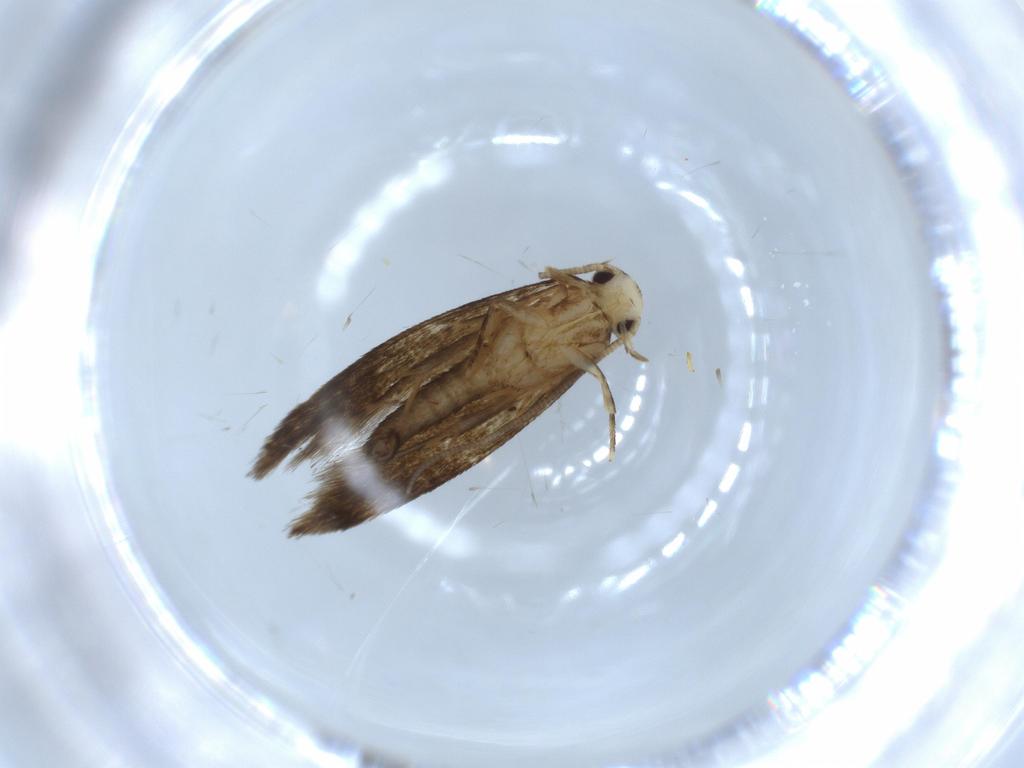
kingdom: Animalia
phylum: Arthropoda
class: Insecta
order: Lepidoptera
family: Tineidae
